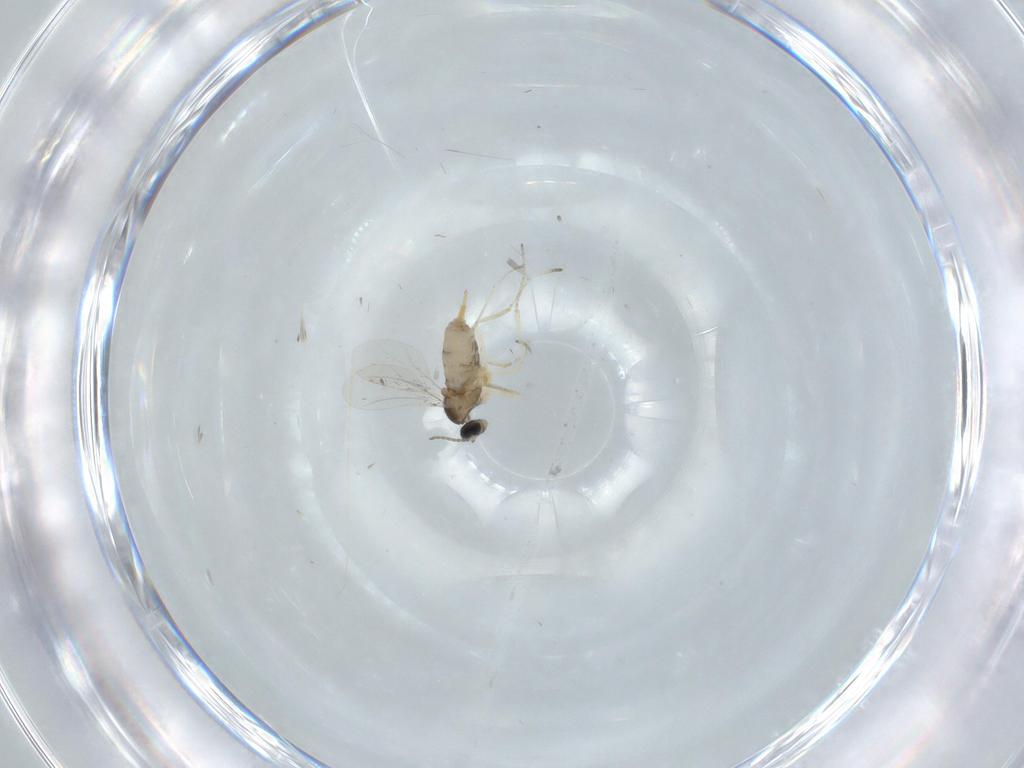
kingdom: Animalia
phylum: Arthropoda
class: Insecta
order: Diptera
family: Cecidomyiidae
